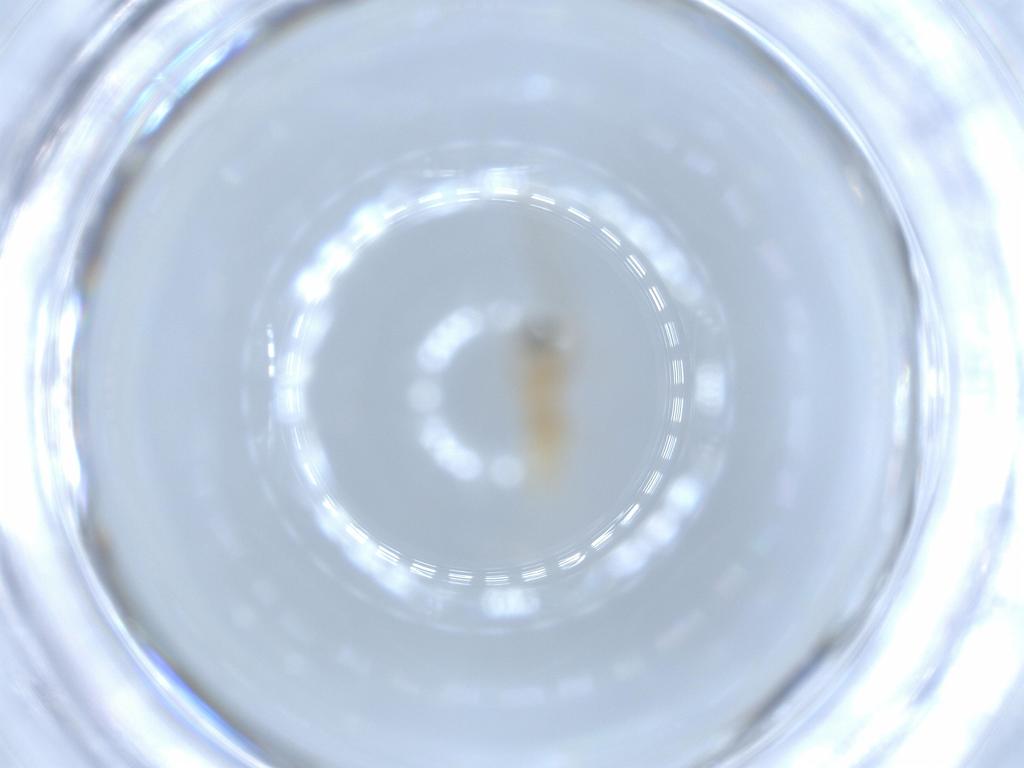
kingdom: Animalia
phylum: Arthropoda
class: Insecta
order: Diptera
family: Cecidomyiidae
